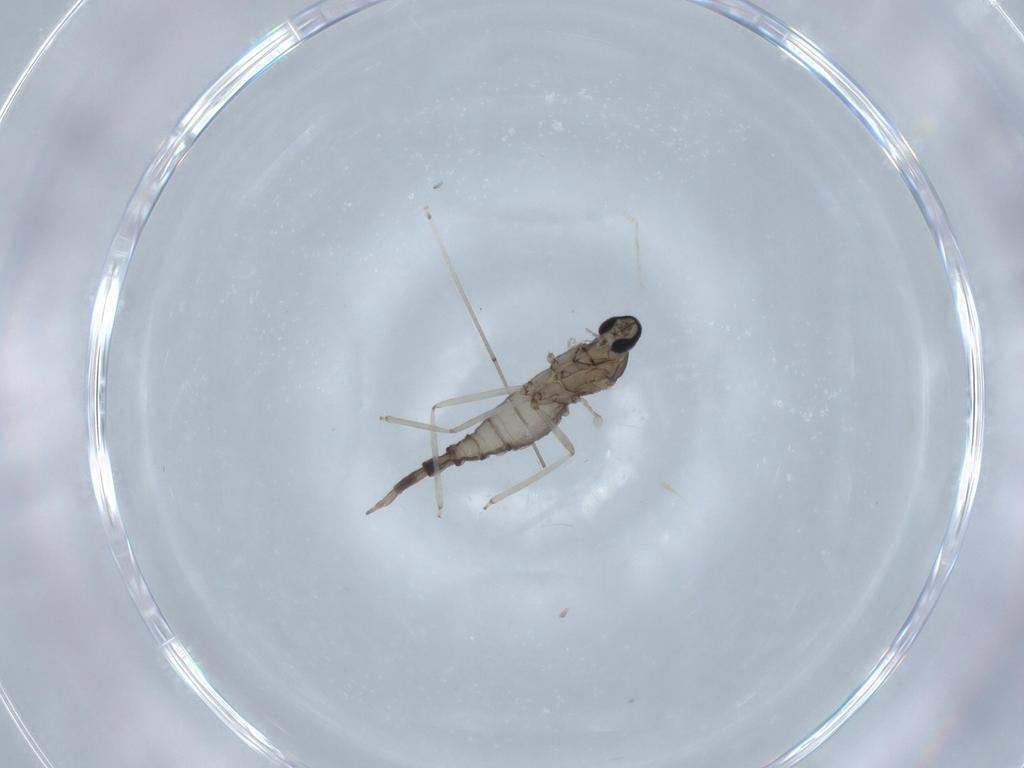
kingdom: Animalia
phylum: Arthropoda
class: Insecta
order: Diptera
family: Cecidomyiidae
